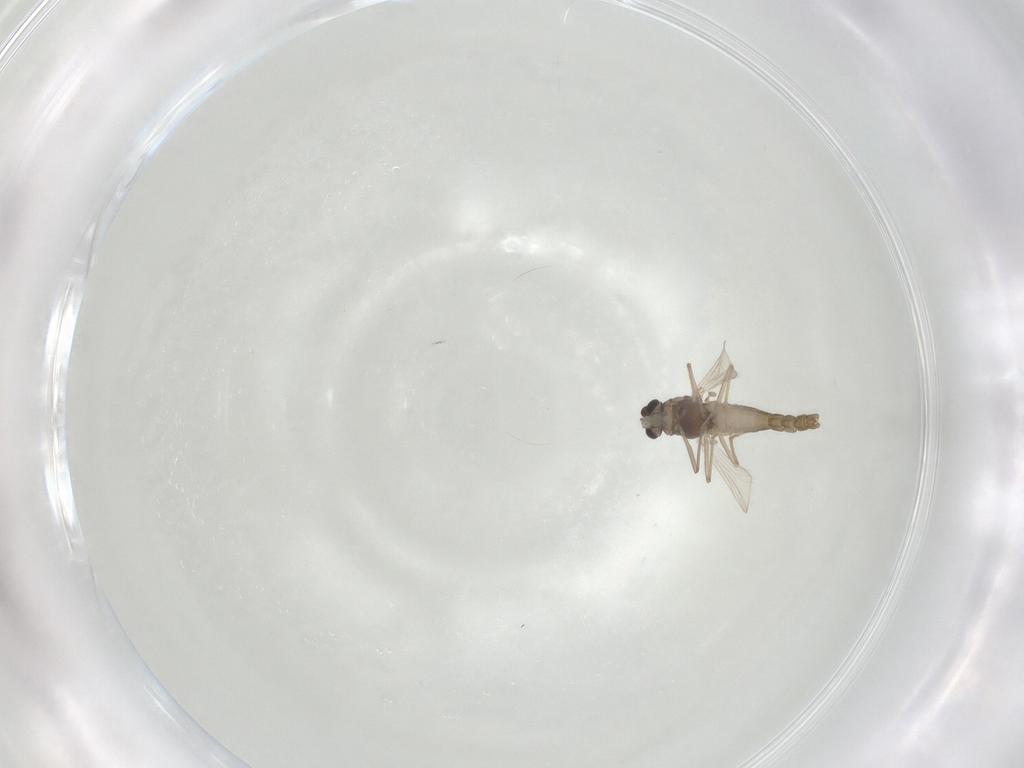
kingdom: Animalia
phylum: Arthropoda
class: Insecta
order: Diptera
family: Chironomidae
